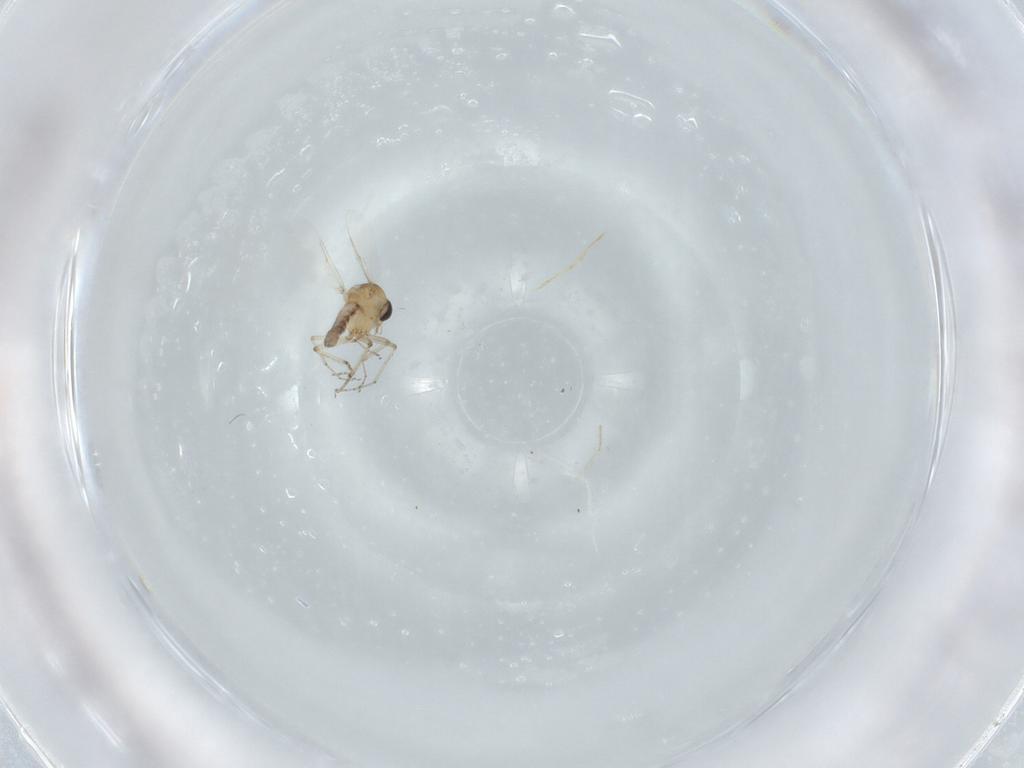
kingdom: Animalia
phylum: Arthropoda
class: Insecta
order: Diptera
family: Ceratopogonidae
